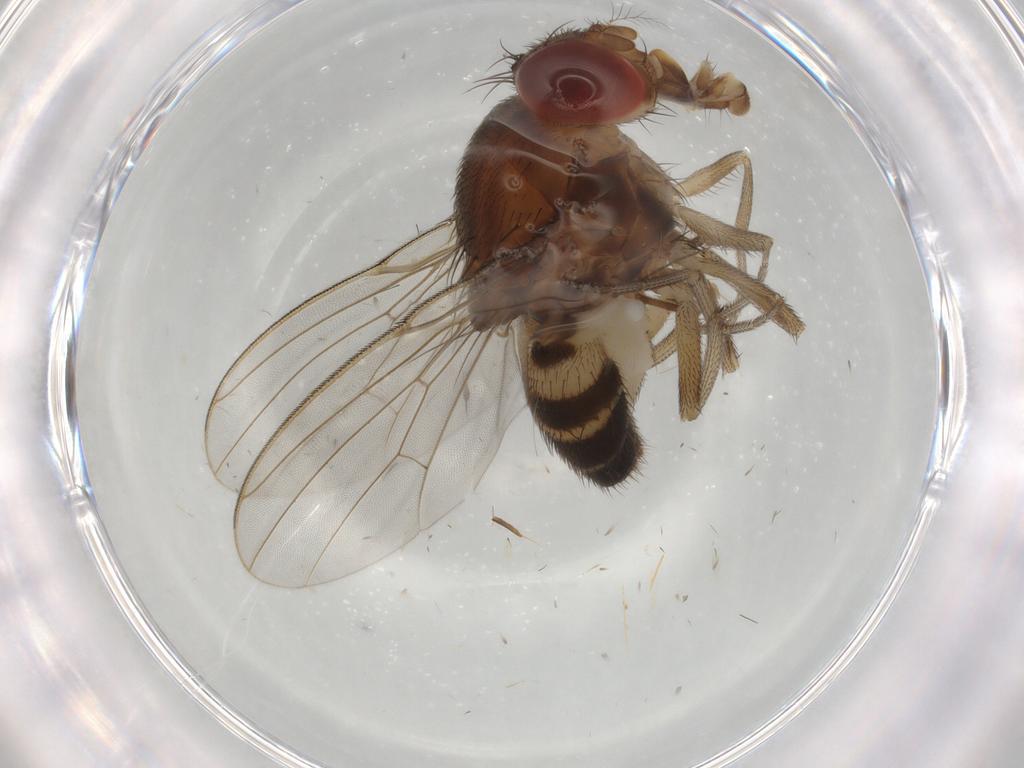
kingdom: Animalia
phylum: Arthropoda
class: Insecta
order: Diptera
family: Drosophilidae
